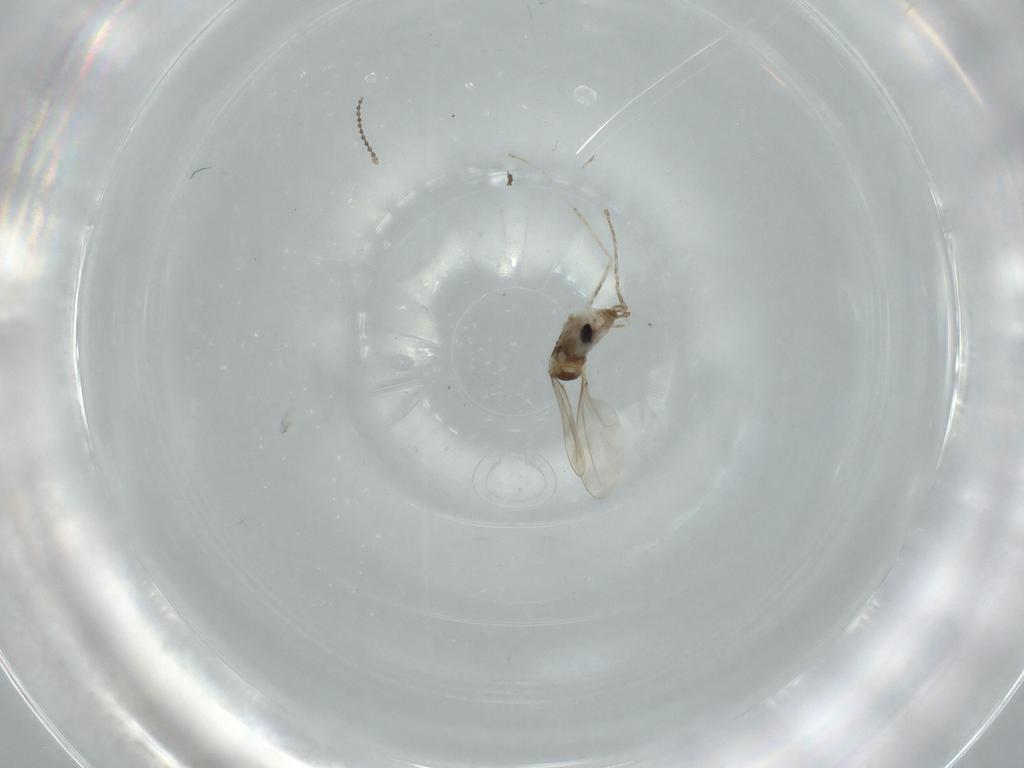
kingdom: Animalia
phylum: Arthropoda
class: Insecta
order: Diptera
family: Cecidomyiidae
